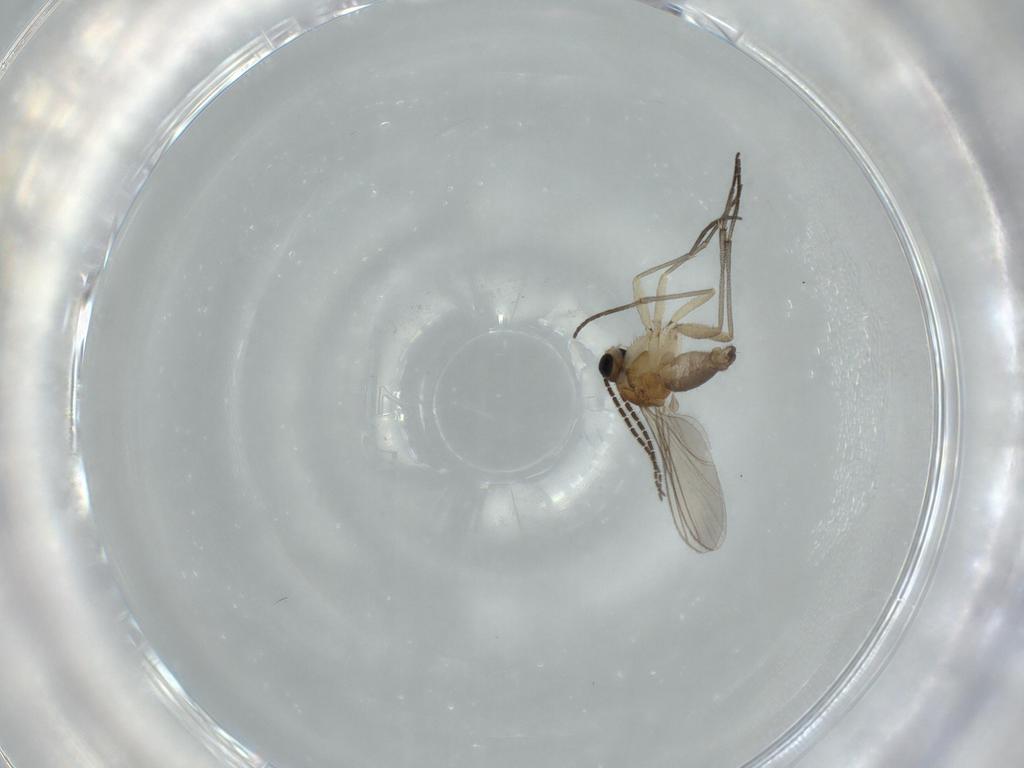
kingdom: Animalia
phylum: Arthropoda
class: Insecta
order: Diptera
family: Sciaridae
